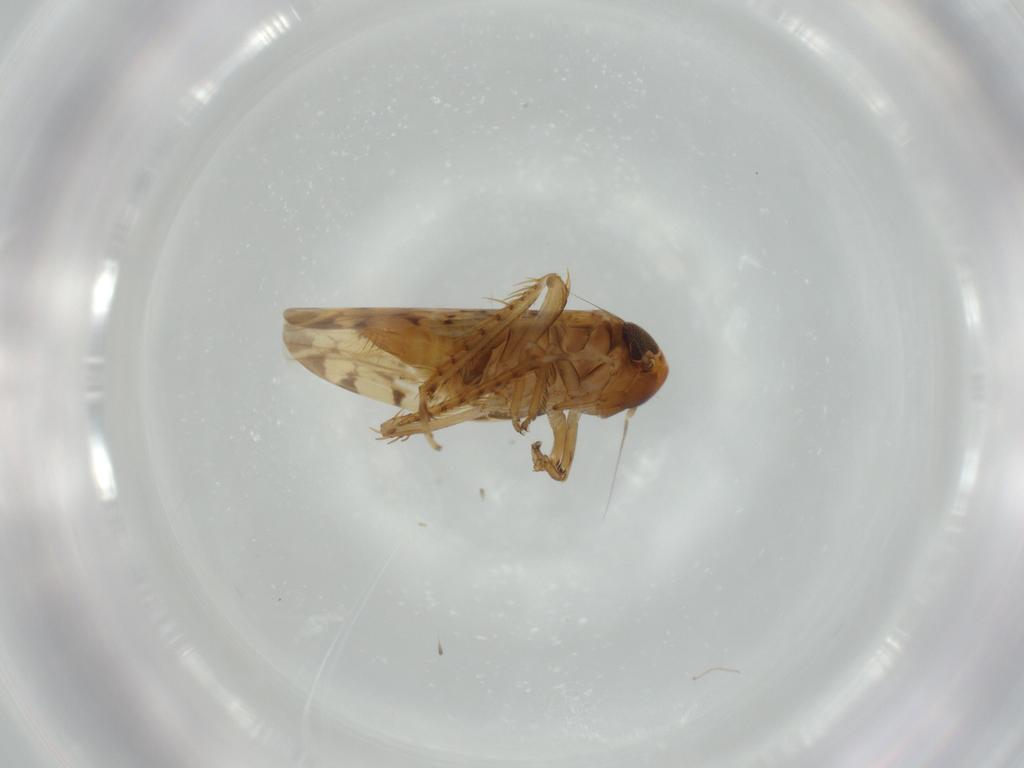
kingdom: Animalia
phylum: Arthropoda
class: Insecta
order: Hemiptera
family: Cicadellidae
